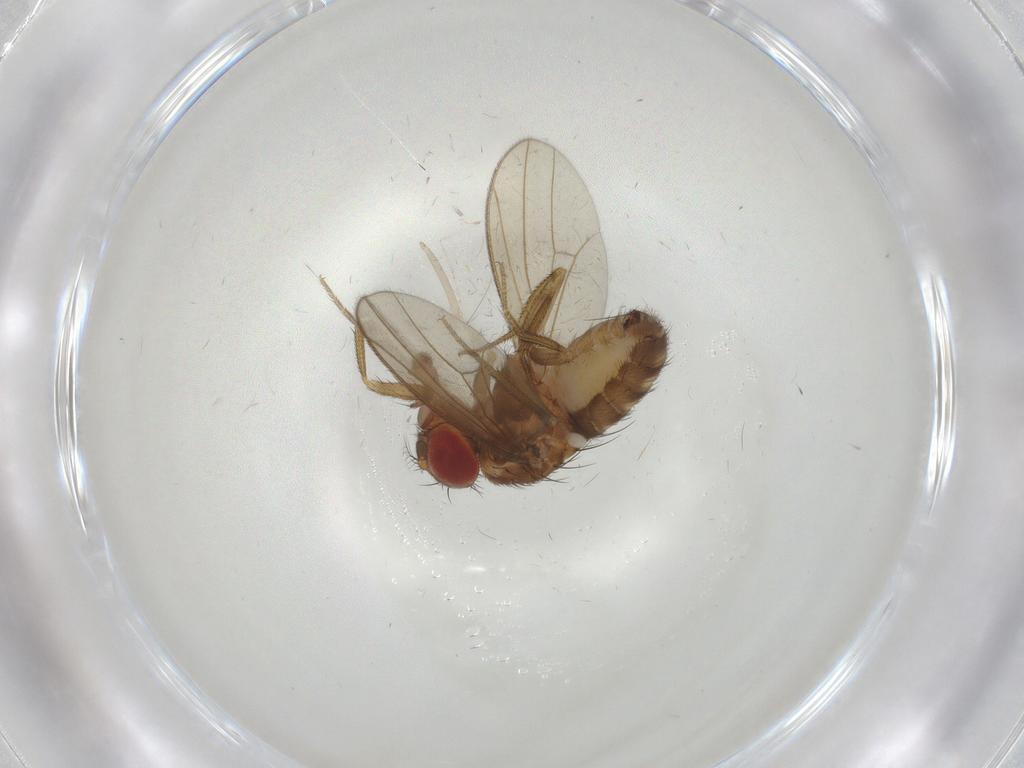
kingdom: Animalia
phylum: Arthropoda
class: Insecta
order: Diptera
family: Drosophilidae
